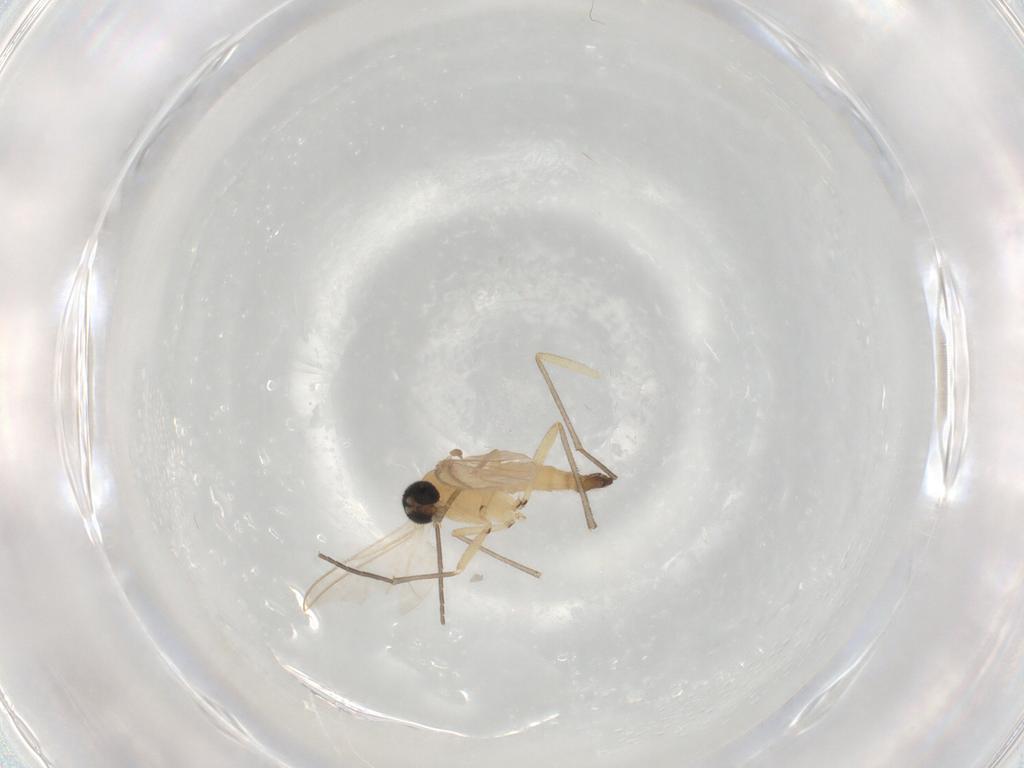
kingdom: Animalia
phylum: Arthropoda
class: Insecta
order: Diptera
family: Sciaridae
